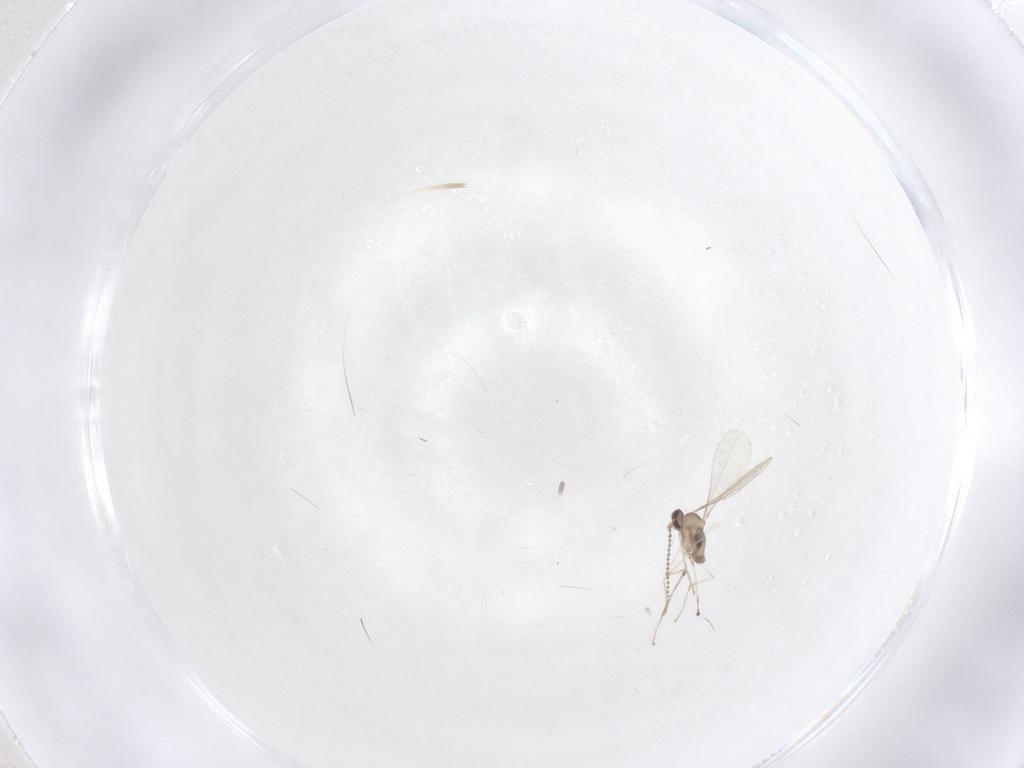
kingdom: Animalia
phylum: Arthropoda
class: Insecta
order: Diptera
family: Cecidomyiidae
